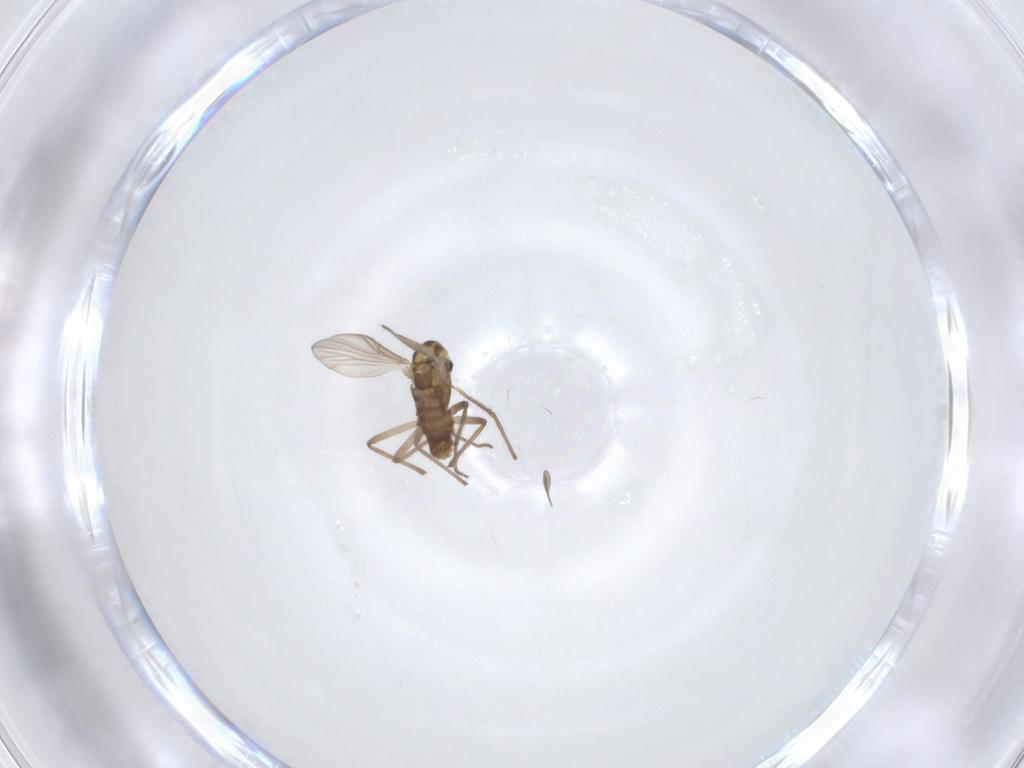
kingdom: Animalia
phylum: Arthropoda
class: Insecta
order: Diptera
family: Chironomidae
